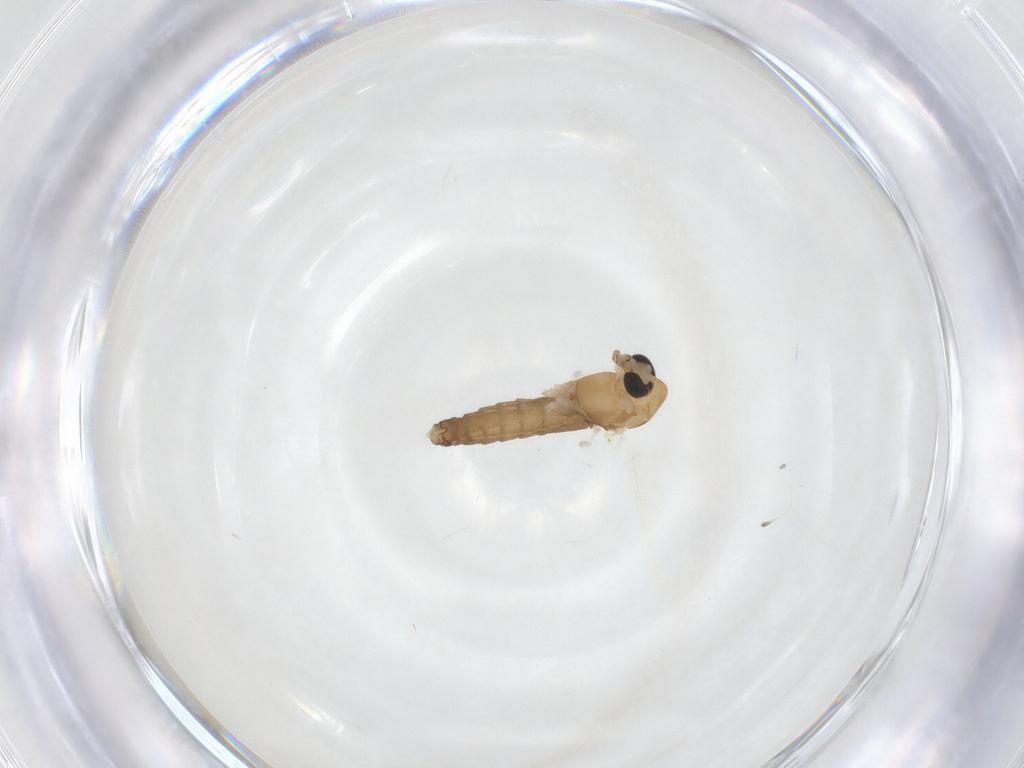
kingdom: Animalia
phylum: Arthropoda
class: Insecta
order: Diptera
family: Chironomidae
